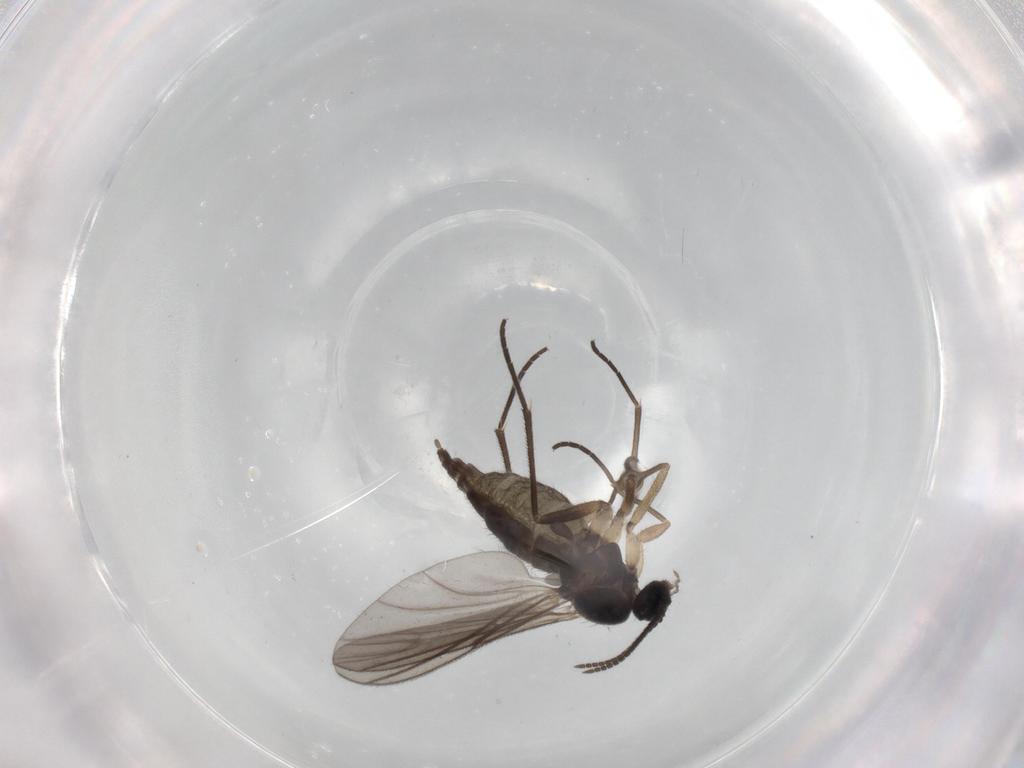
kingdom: Animalia
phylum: Arthropoda
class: Insecta
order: Diptera
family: Sciaridae
